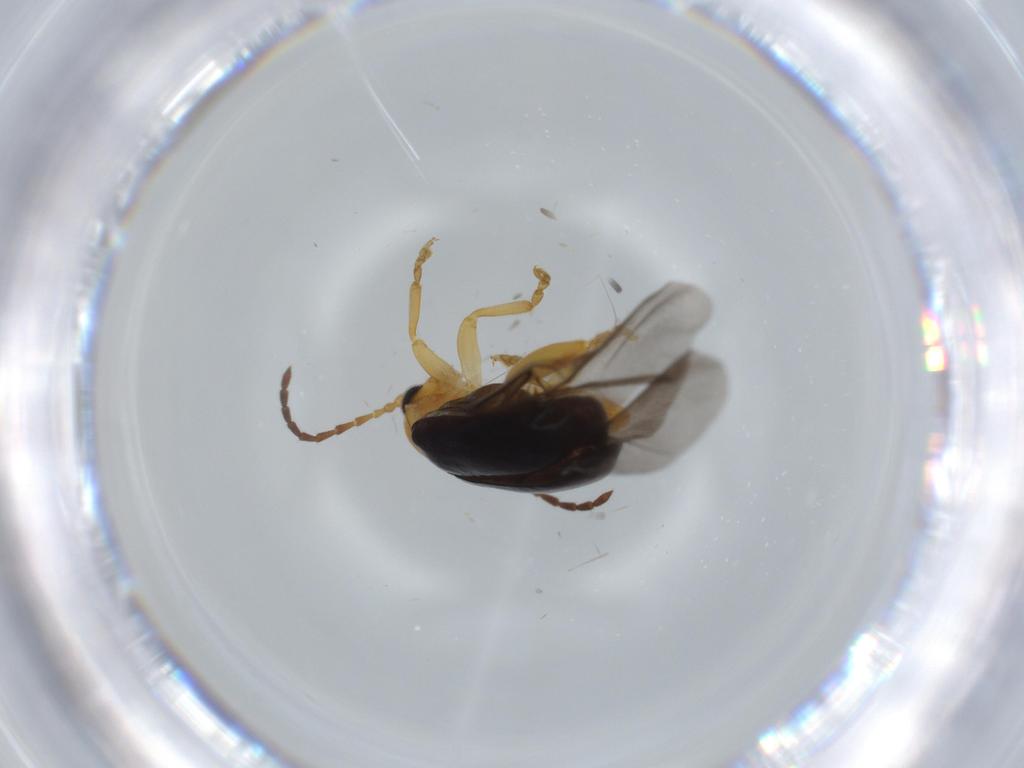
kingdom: Animalia
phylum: Arthropoda
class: Insecta
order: Coleoptera
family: Chrysomelidae
